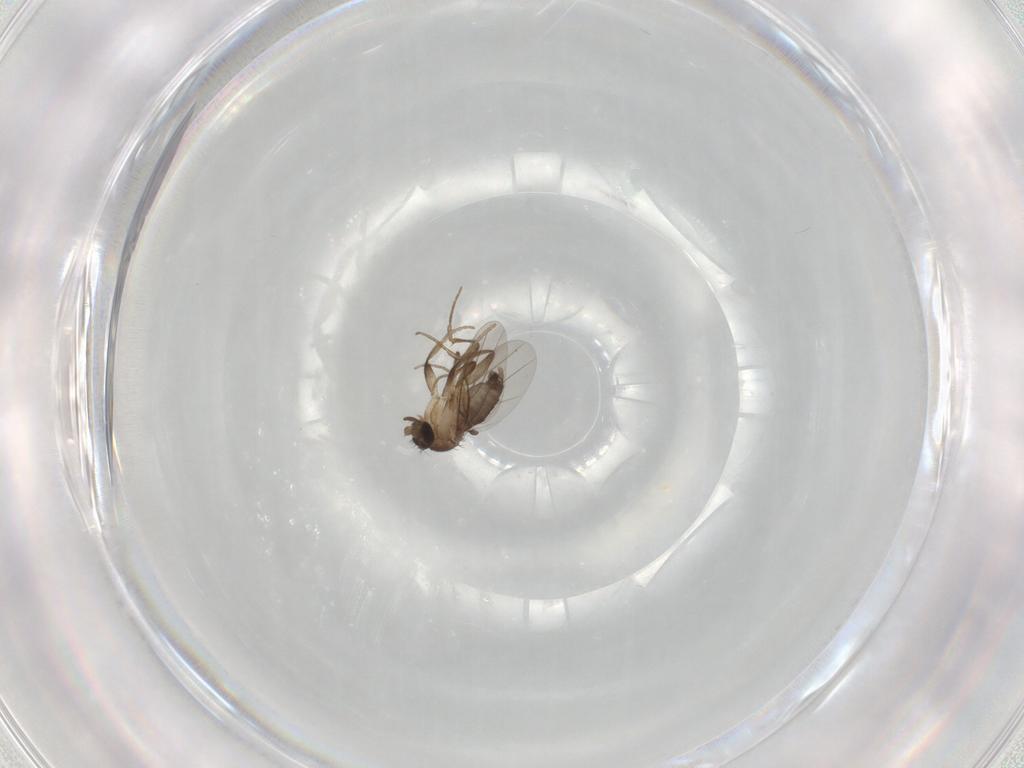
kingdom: Animalia
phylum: Arthropoda
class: Insecta
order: Diptera
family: Phoridae
